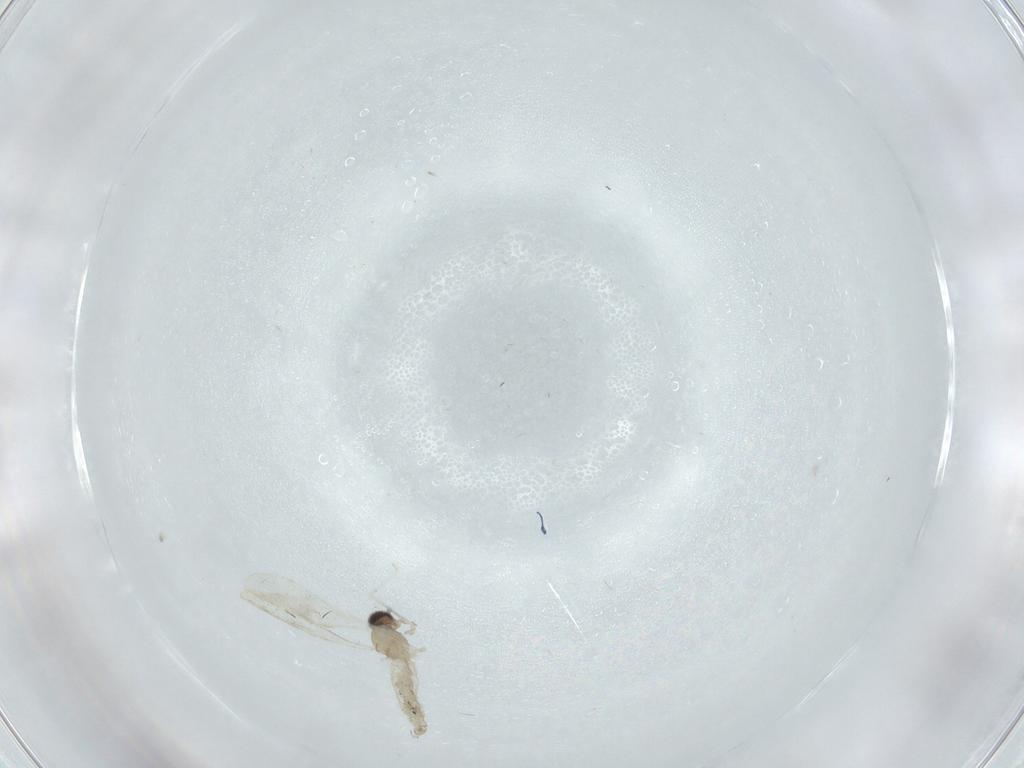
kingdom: Animalia
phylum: Arthropoda
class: Insecta
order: Diptera
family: Cecidomyiidae
